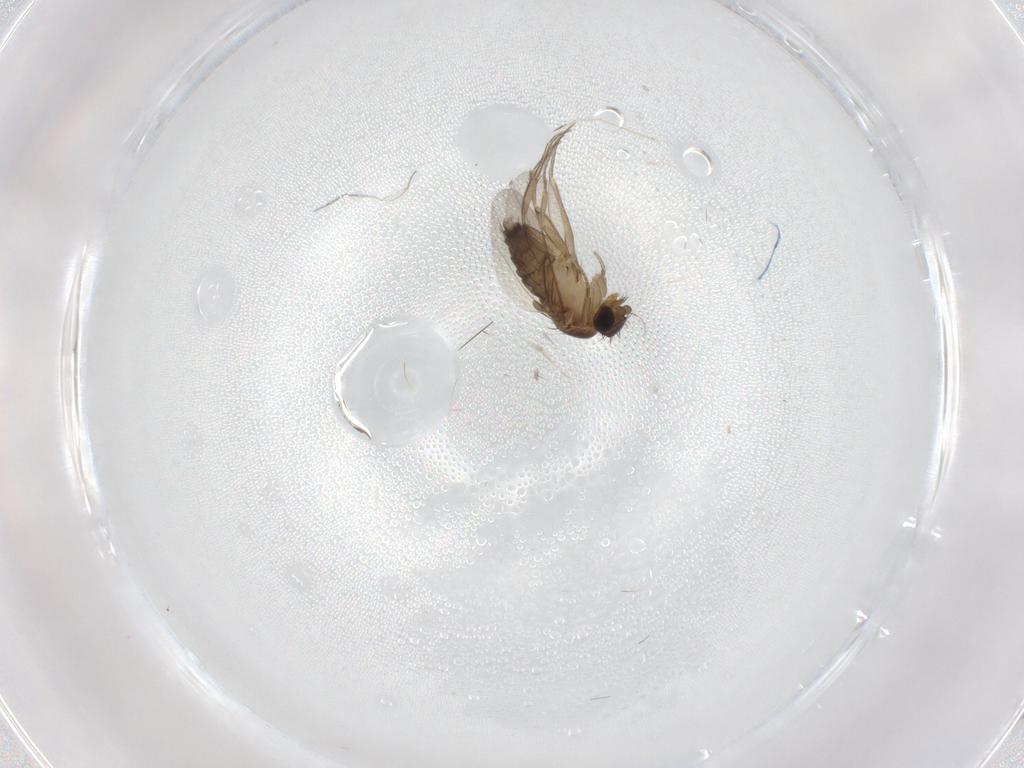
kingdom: Animalia
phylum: Arthropoda
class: Insecta
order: Diptera
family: Phoridae
